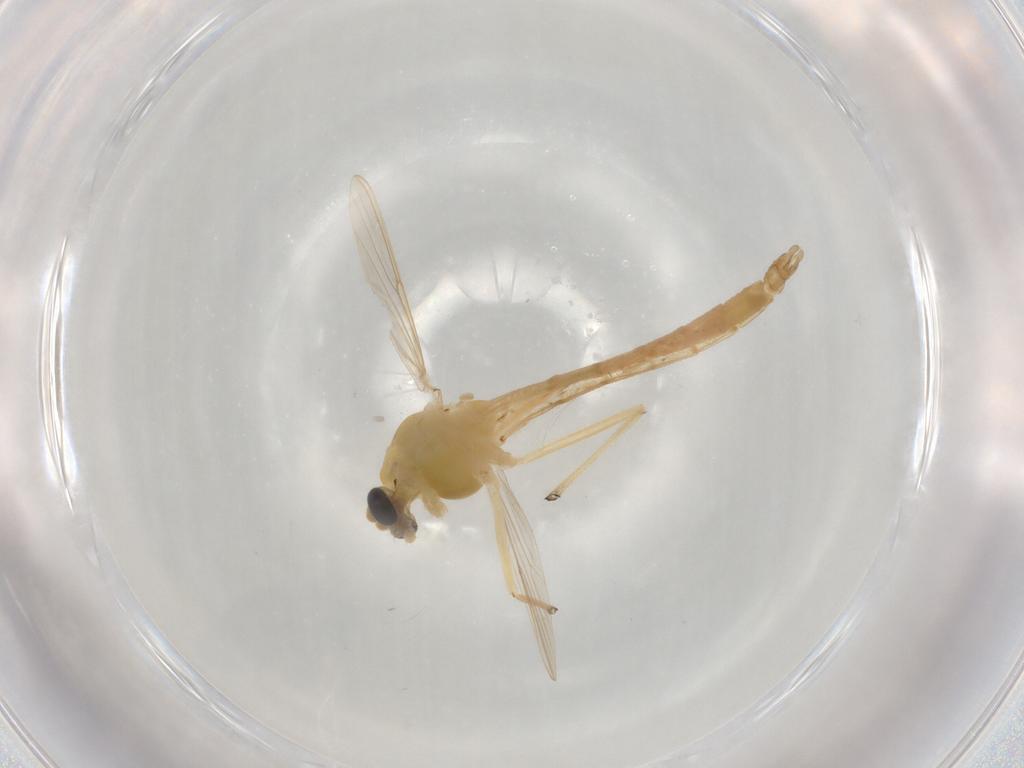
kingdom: Animalia
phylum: Arthropoda
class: Insecta
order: Diptera
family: Chironomidae
